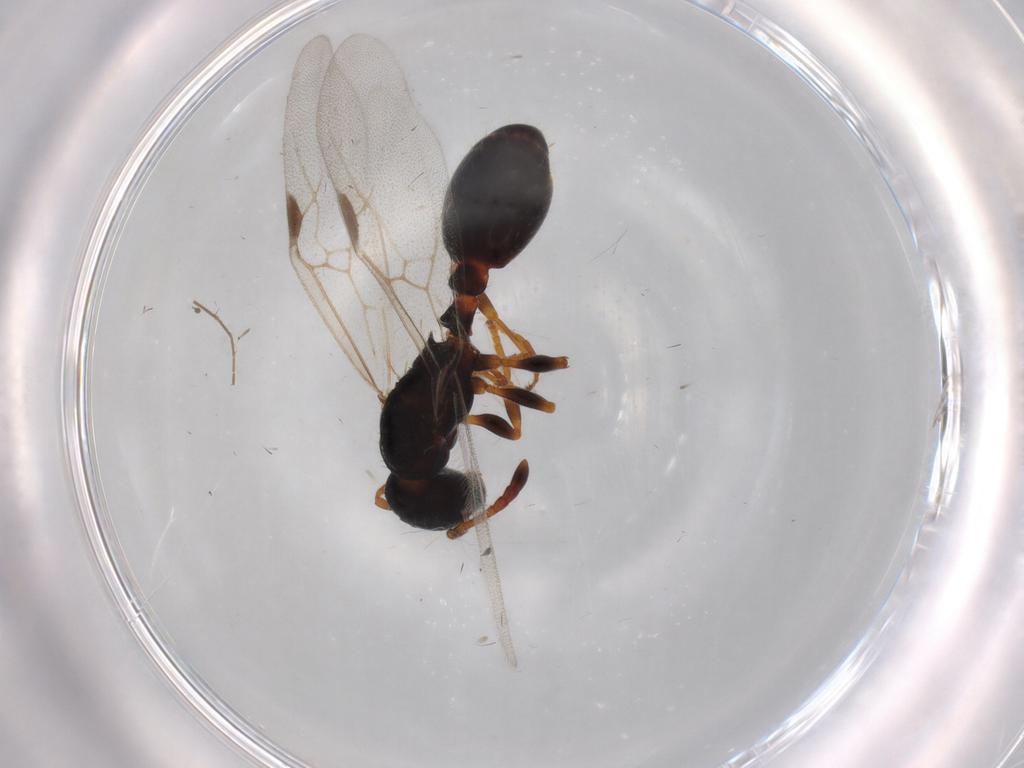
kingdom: Animalia
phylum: Arthropoda
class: Insecta
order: Hymenoptera
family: Formicidae
